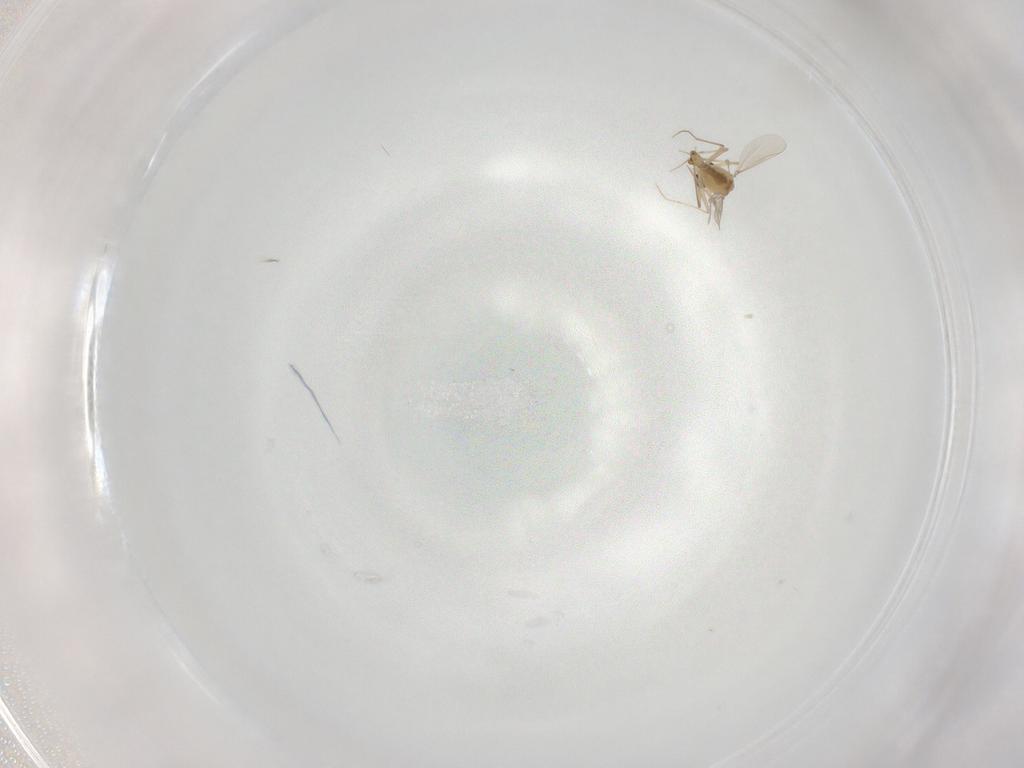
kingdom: Animalia
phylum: Arthropoda
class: Insecta
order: Diptera
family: Chironomidae
